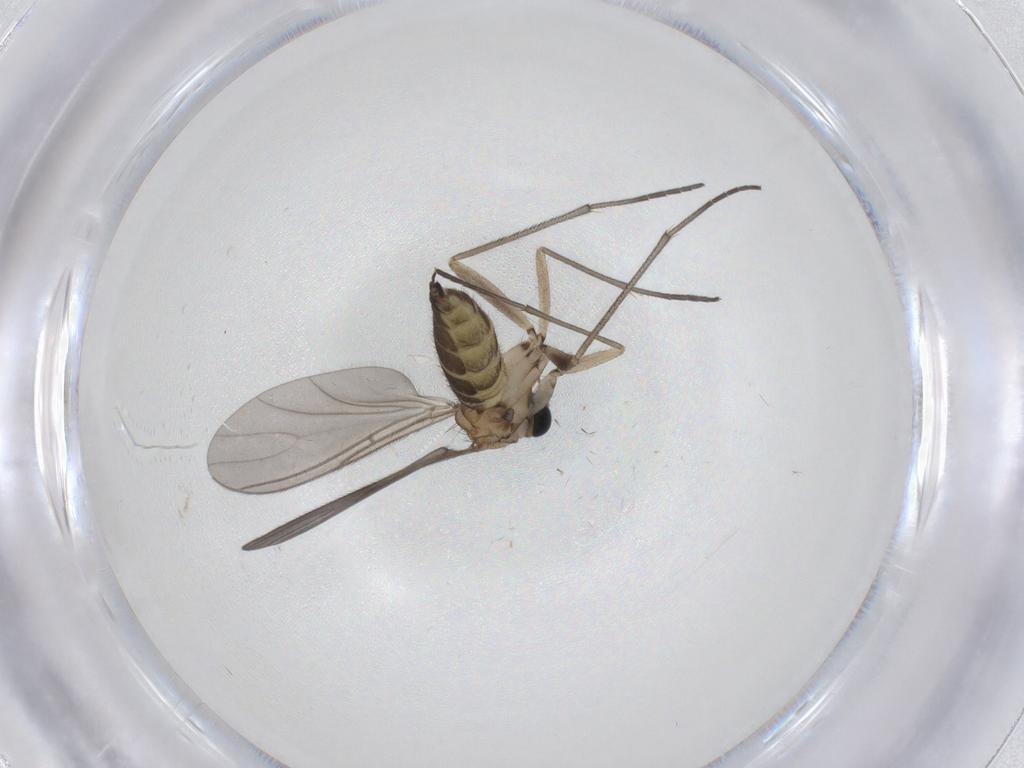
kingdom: Animalia
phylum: Arthropoda
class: Insecta
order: Diptera
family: Sciaridae
